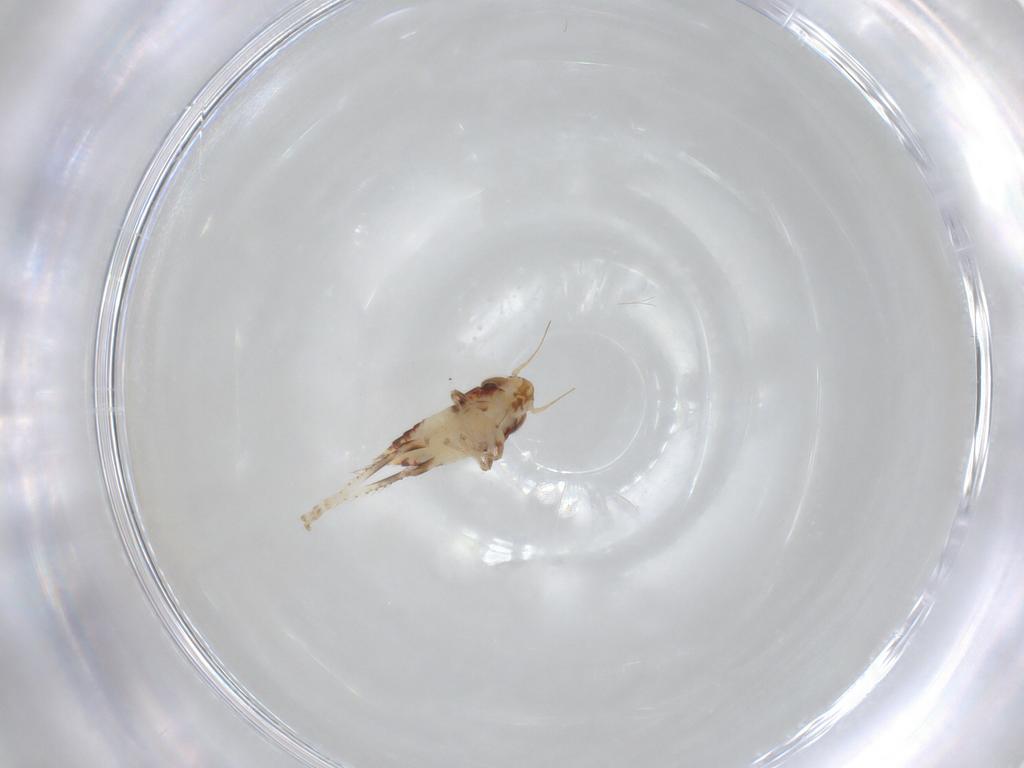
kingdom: Animalia
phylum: Arthropoda
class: Insecta
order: Hemiptera
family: Cicadellidae
